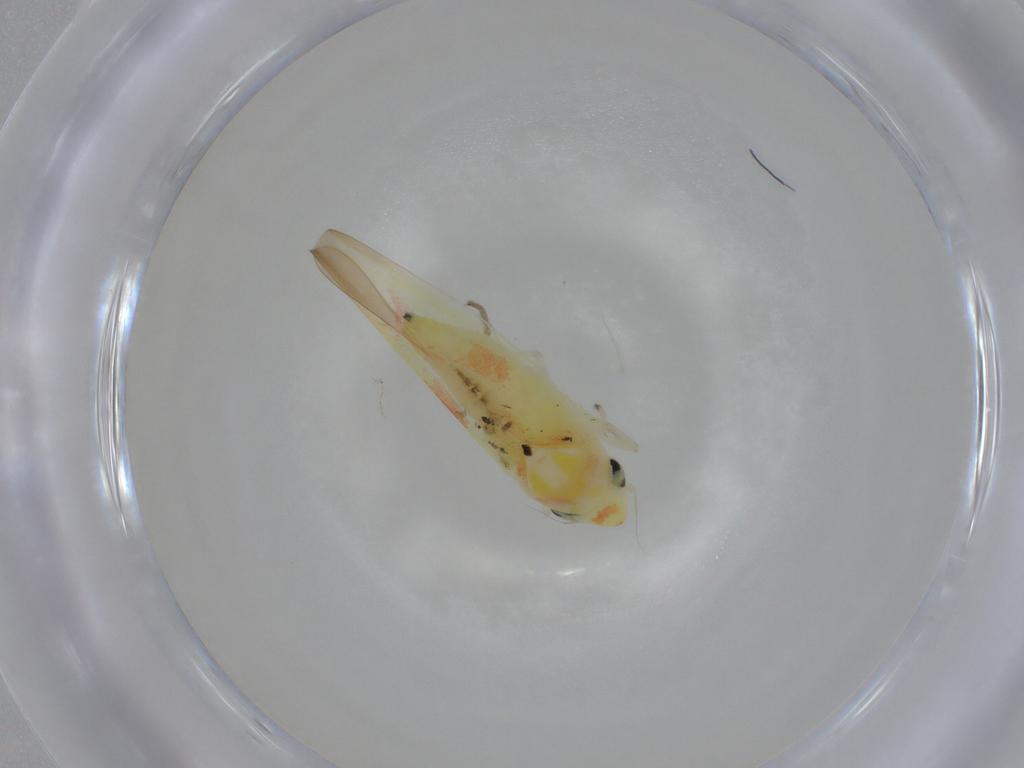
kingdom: Animalia
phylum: Arthropoda
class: Insecta
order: Hemiptera
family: Cicadellidae
